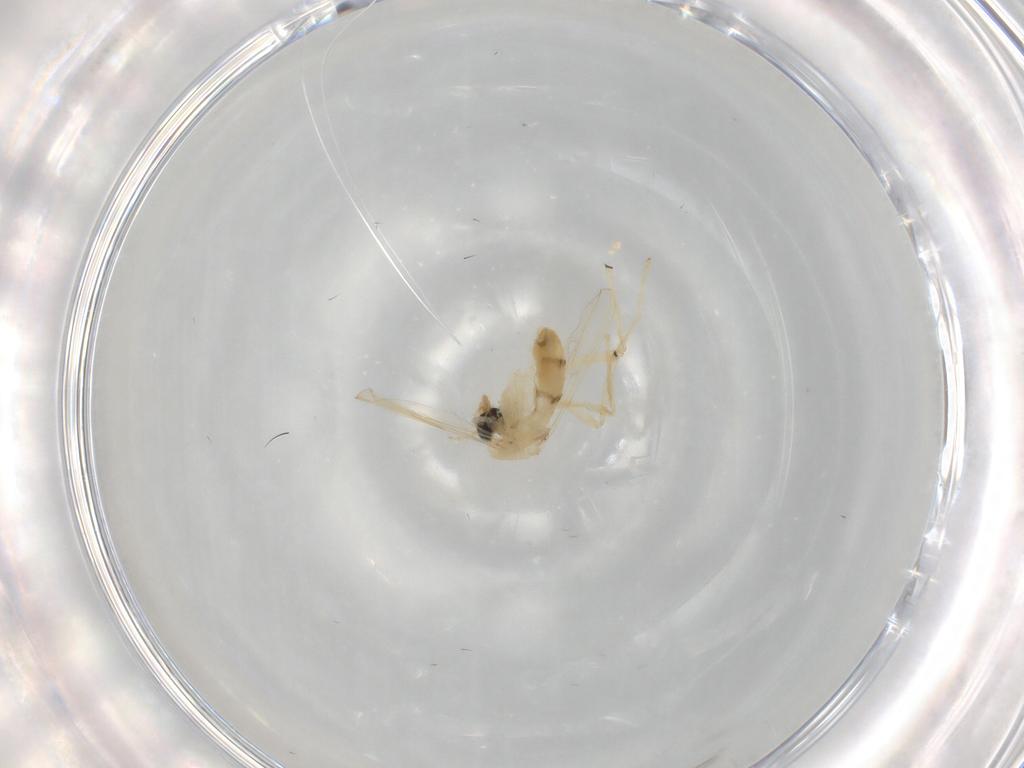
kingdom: Animalia
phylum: Arthropoda
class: Insecta
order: Diptera
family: Chironomidae
